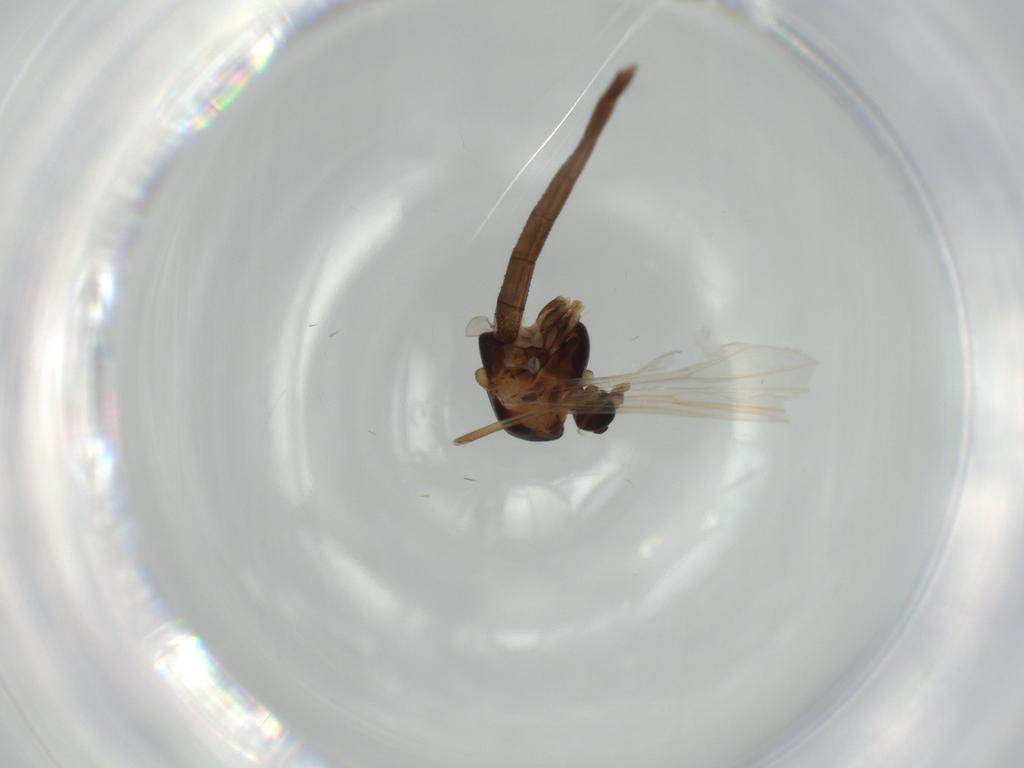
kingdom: Animalia
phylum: Arthropoda
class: Insecta
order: Diptera
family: Chironomidae
